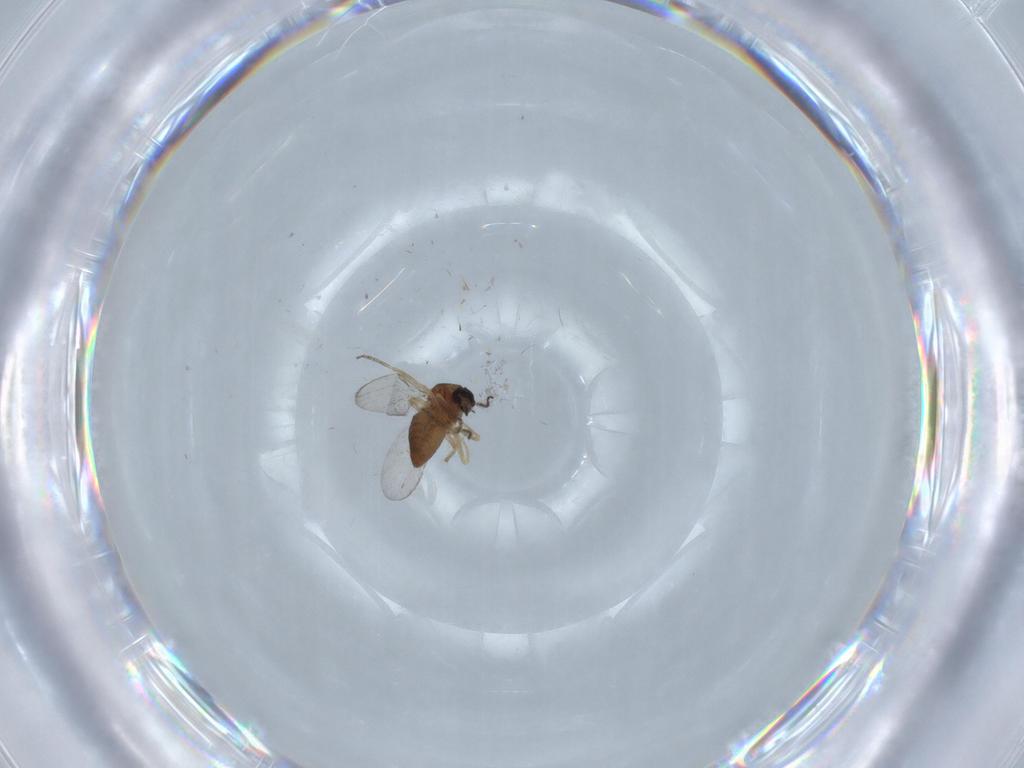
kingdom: Animalia
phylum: Arthropoda
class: Insecta
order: Diptera
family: Ceratopogonidae
